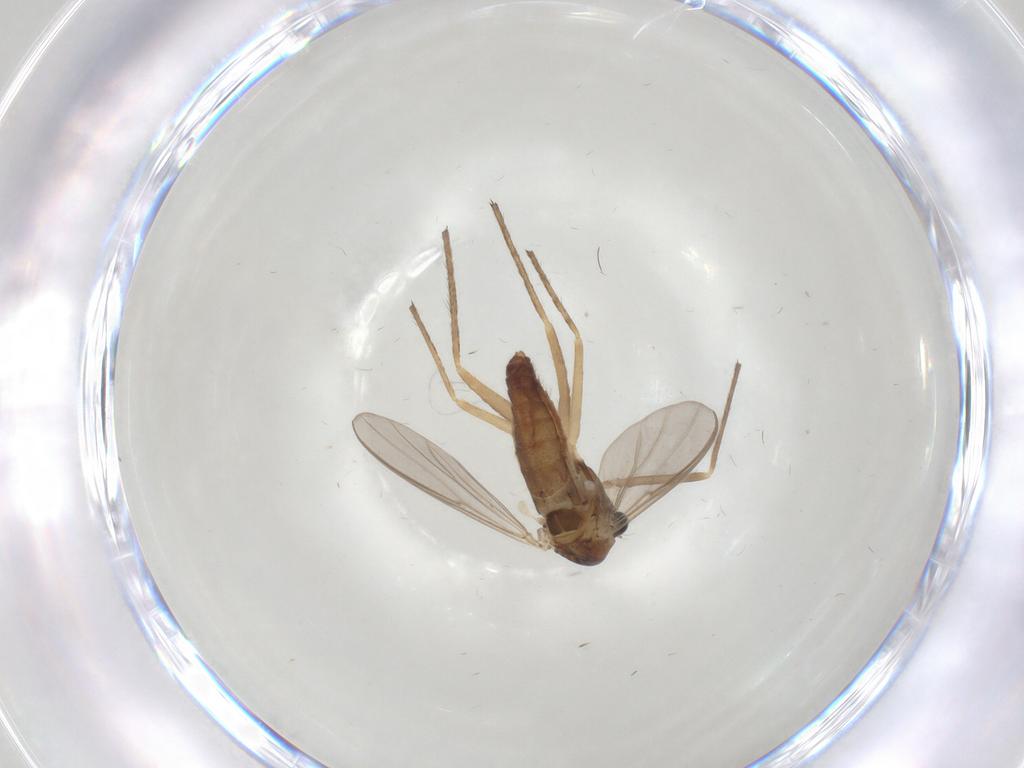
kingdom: Animalia
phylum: Arthropoda
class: Insecta
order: Diptera
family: Chironomidae
